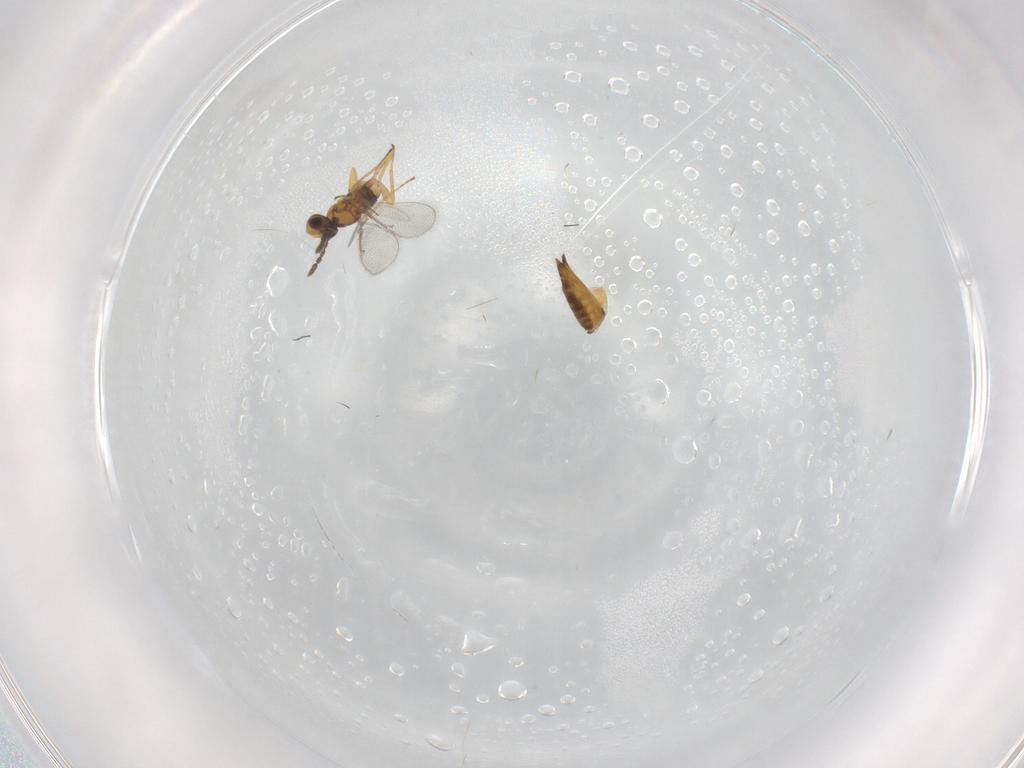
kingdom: Animalia
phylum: Arthropoda
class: Insecta
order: Hymenoptera
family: Eulophidae
